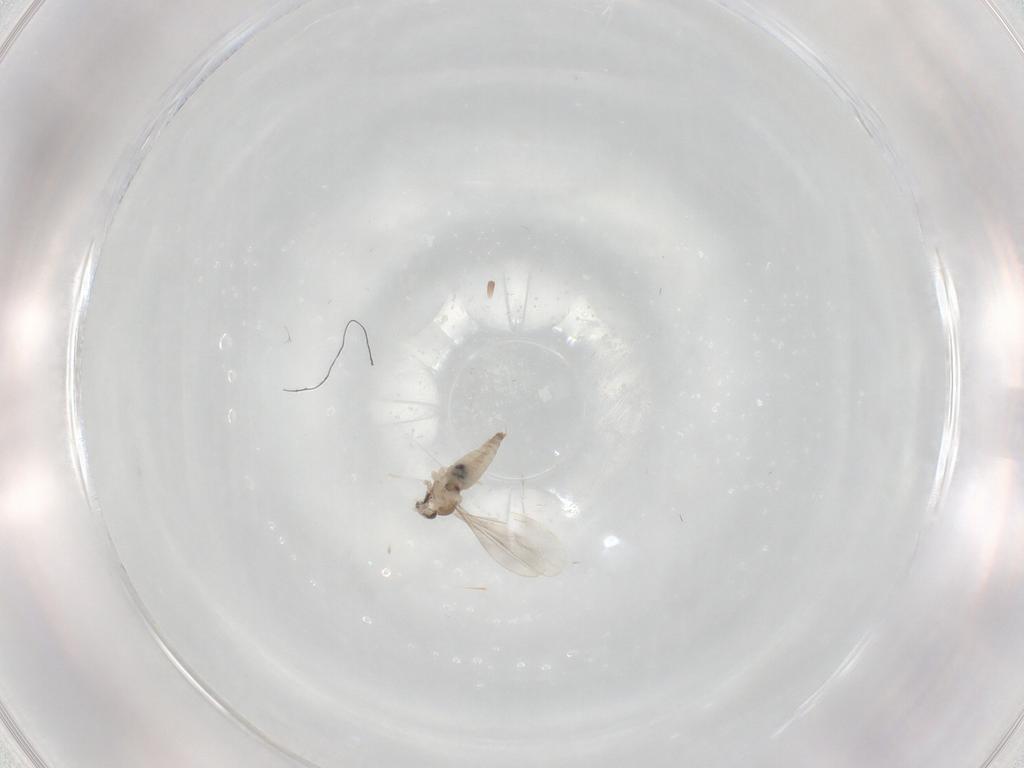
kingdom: Animalia
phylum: Arthropoda
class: Insecta
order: Diptera
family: Cecidomyiidae
